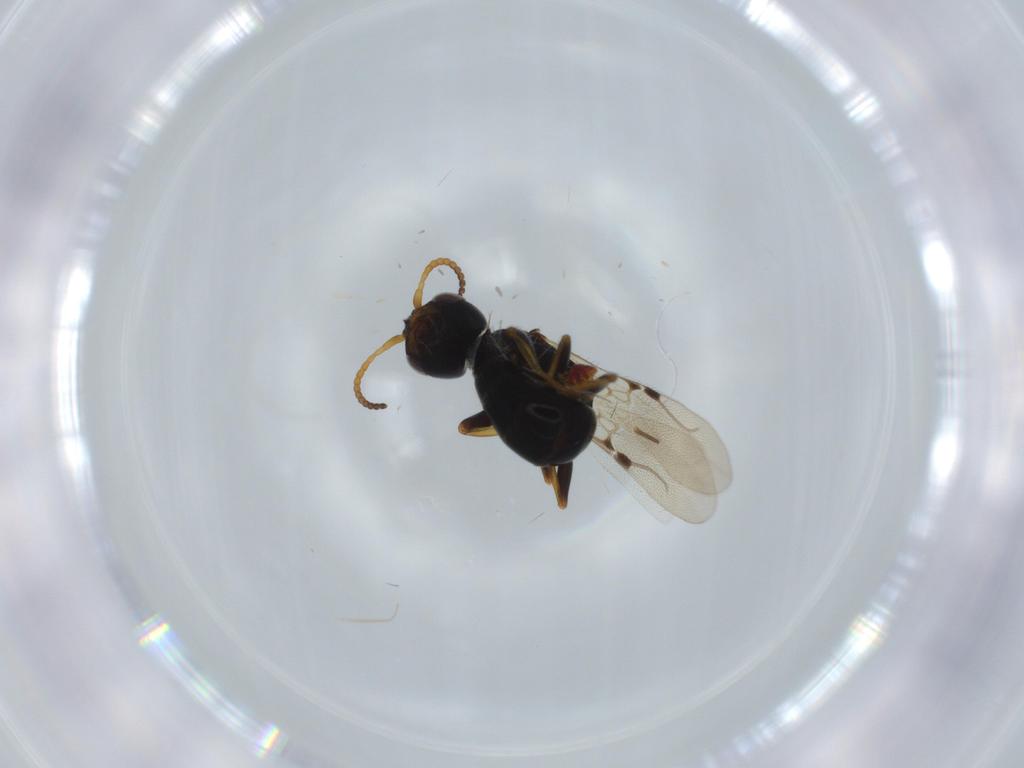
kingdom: Animalia
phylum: Arthropoda
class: Insecta
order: Hymenoptera
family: Bethylidae
